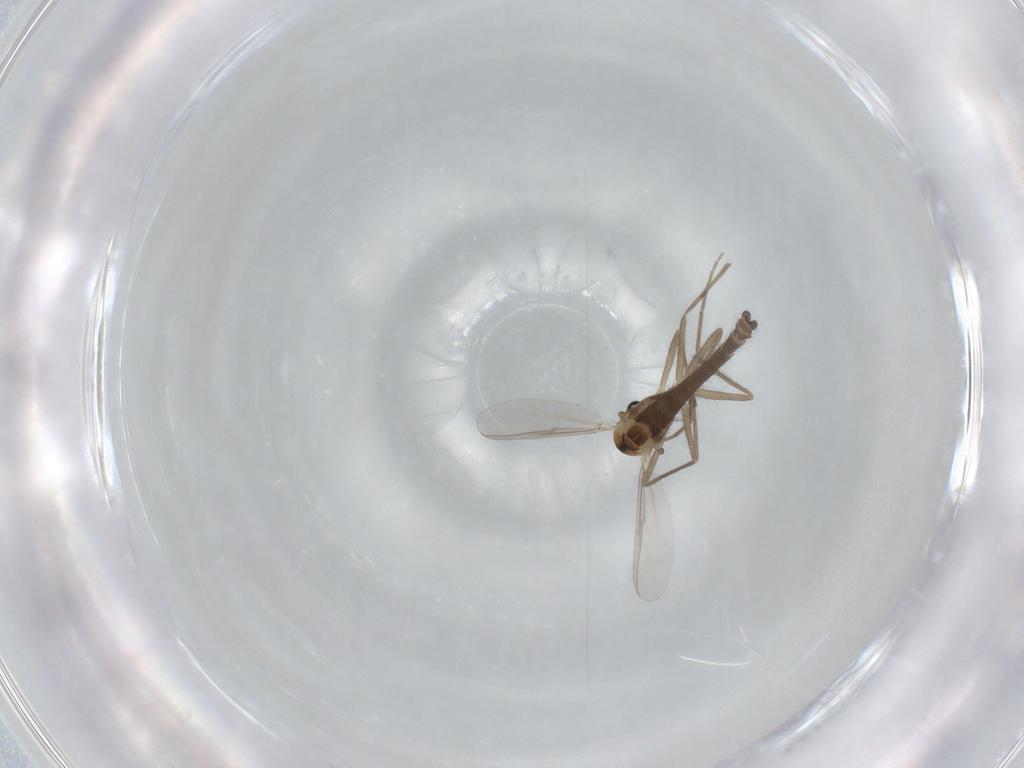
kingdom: Animalia
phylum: Arthropoda
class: Insecta
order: Diptera
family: Chironomidae
